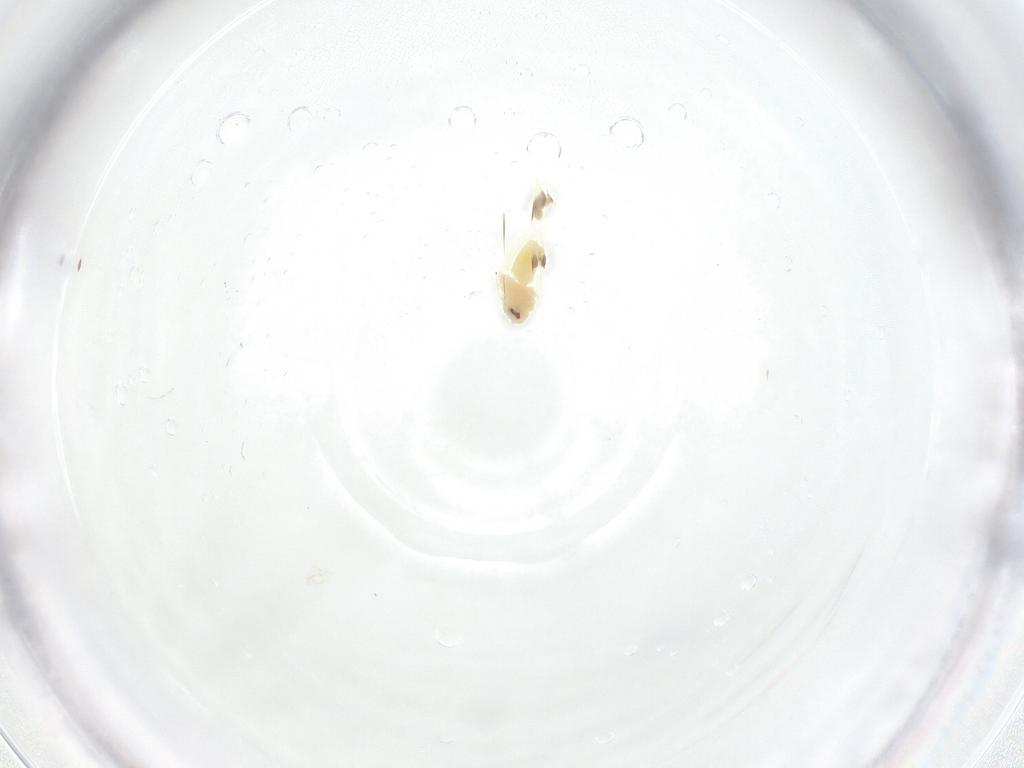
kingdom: Animalia
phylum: Arthropoda
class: Insecta
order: Hemiptera
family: Aleyrodidae
